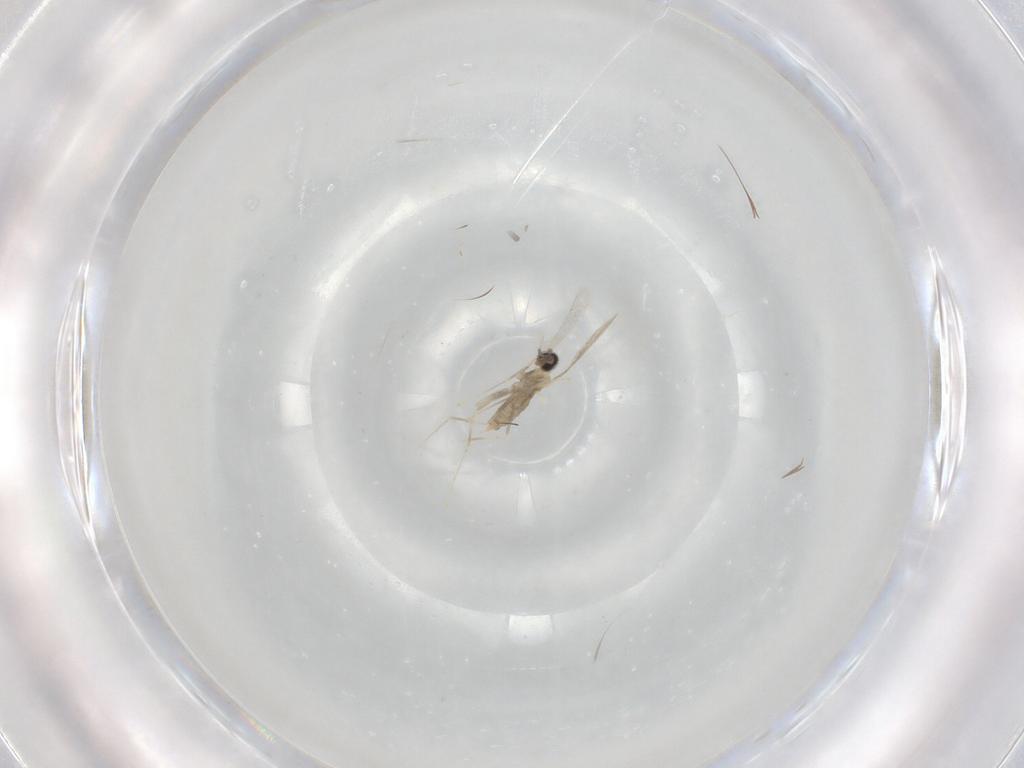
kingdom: Animalia
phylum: Arthropoda
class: Insecta
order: Diptera
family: Cecidomyiidae
